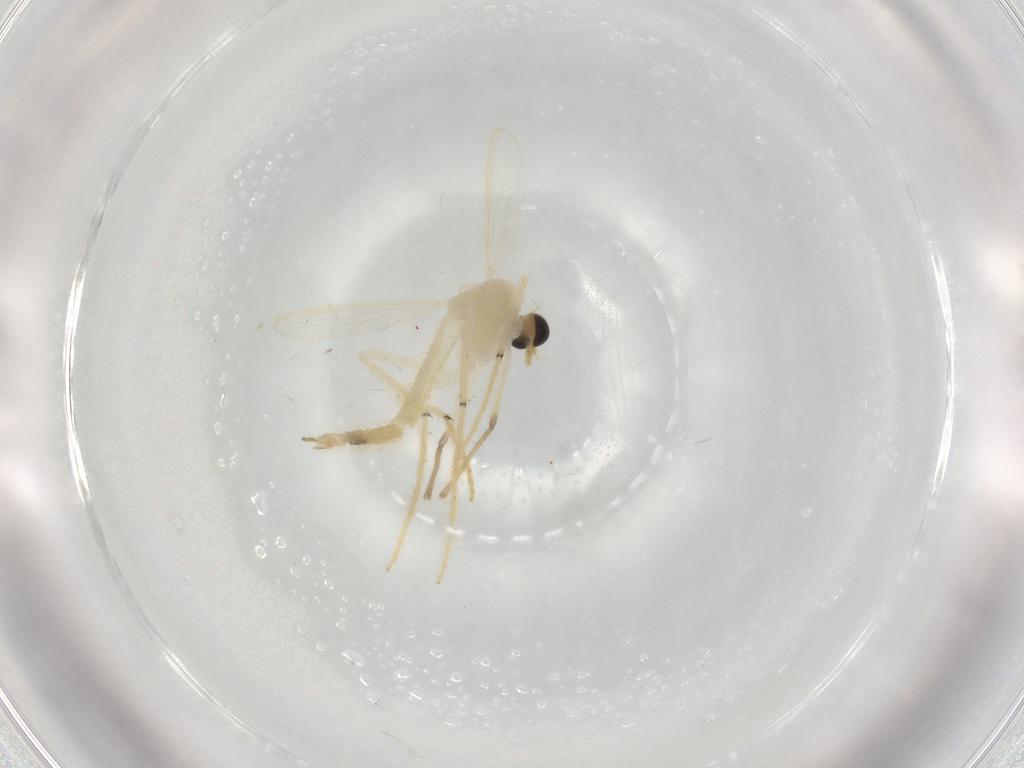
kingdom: Animalia
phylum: Arthropoda
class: Insecta
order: Diptera
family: Chironomidae
